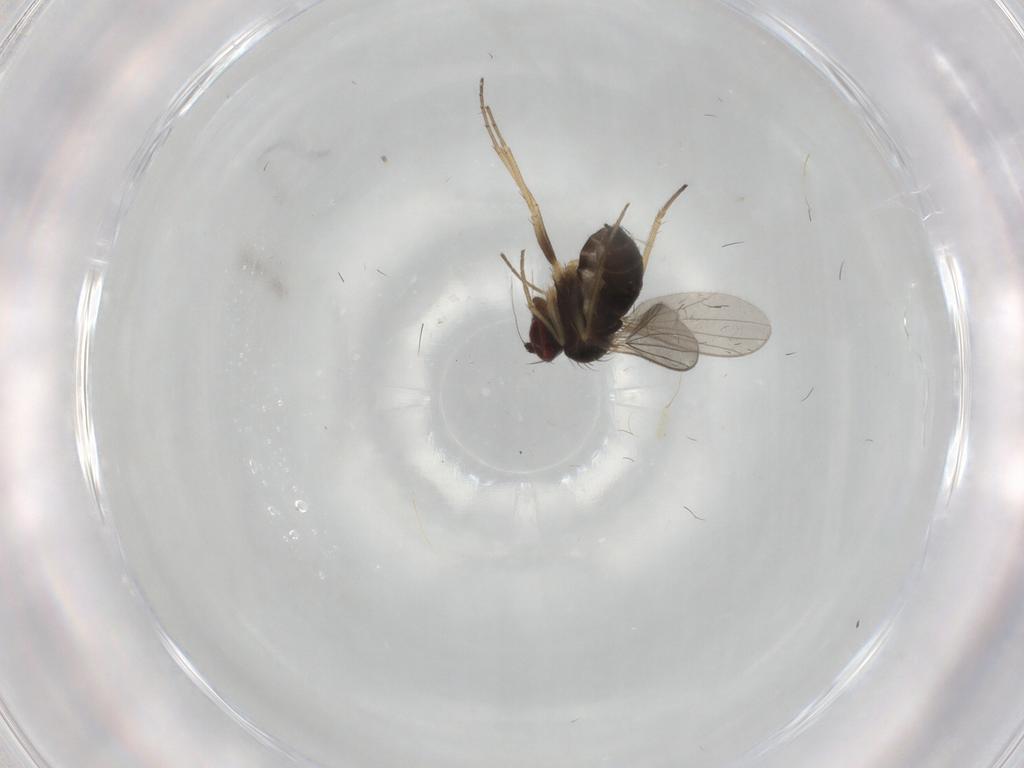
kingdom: Animalia
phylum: Arthropoda
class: Insecta
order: Diptera
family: Dolichopodidae
